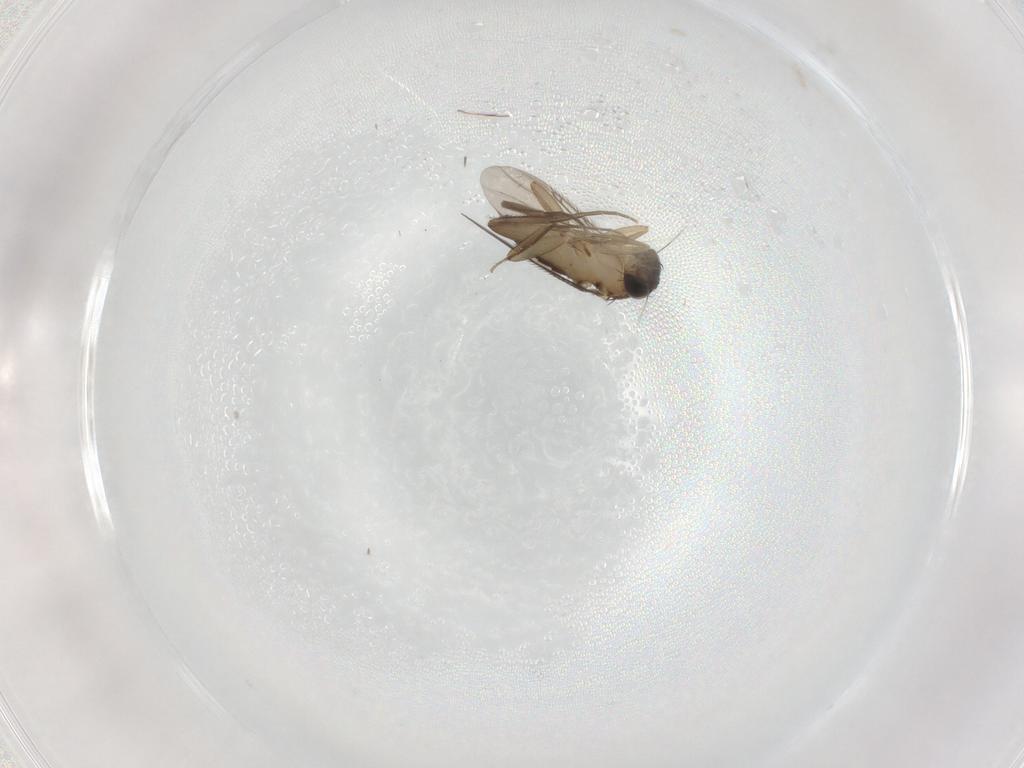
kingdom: Animalia
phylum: Arthropoda
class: Insecta
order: Diptera
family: Phoridae
